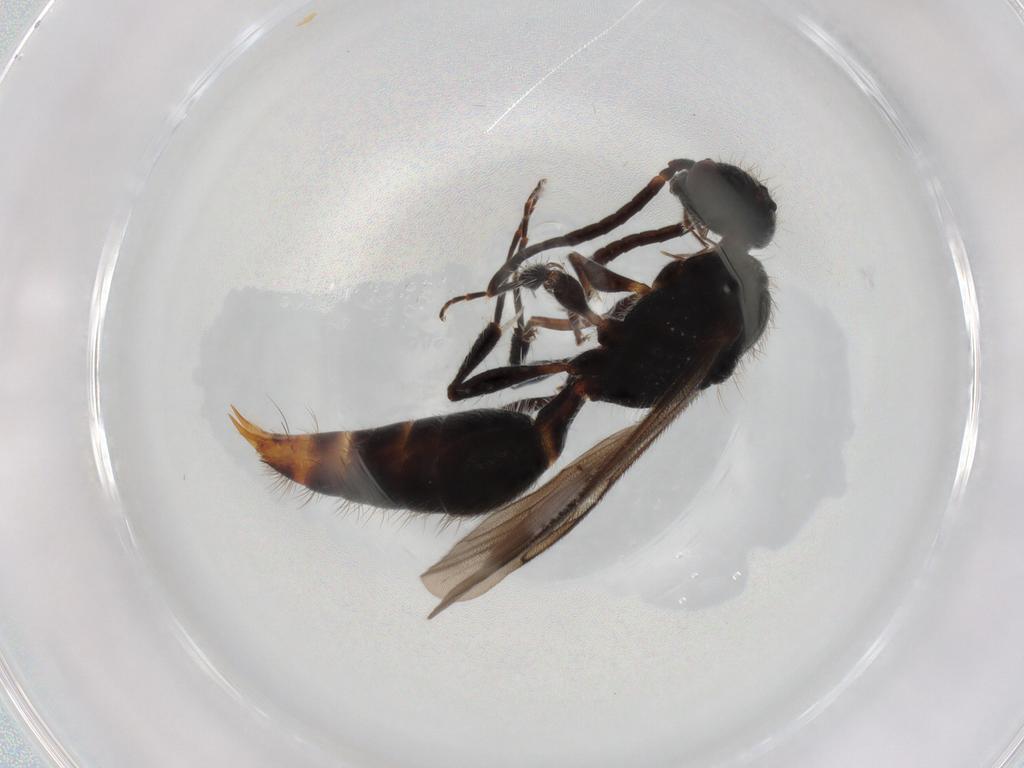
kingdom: Animalia
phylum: Arthropoda
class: Insecta
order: Hymenoptera
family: Mutillidae
